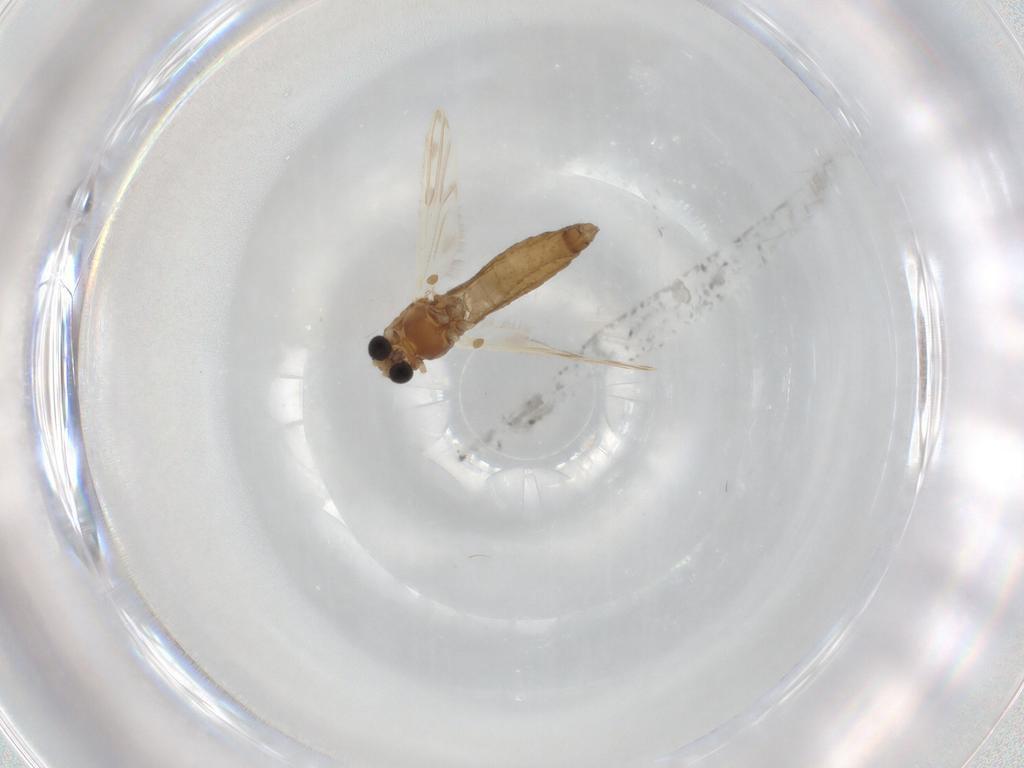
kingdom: Animalia
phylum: Arthropoda
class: Insecta
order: Diptera
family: Chironomidae
